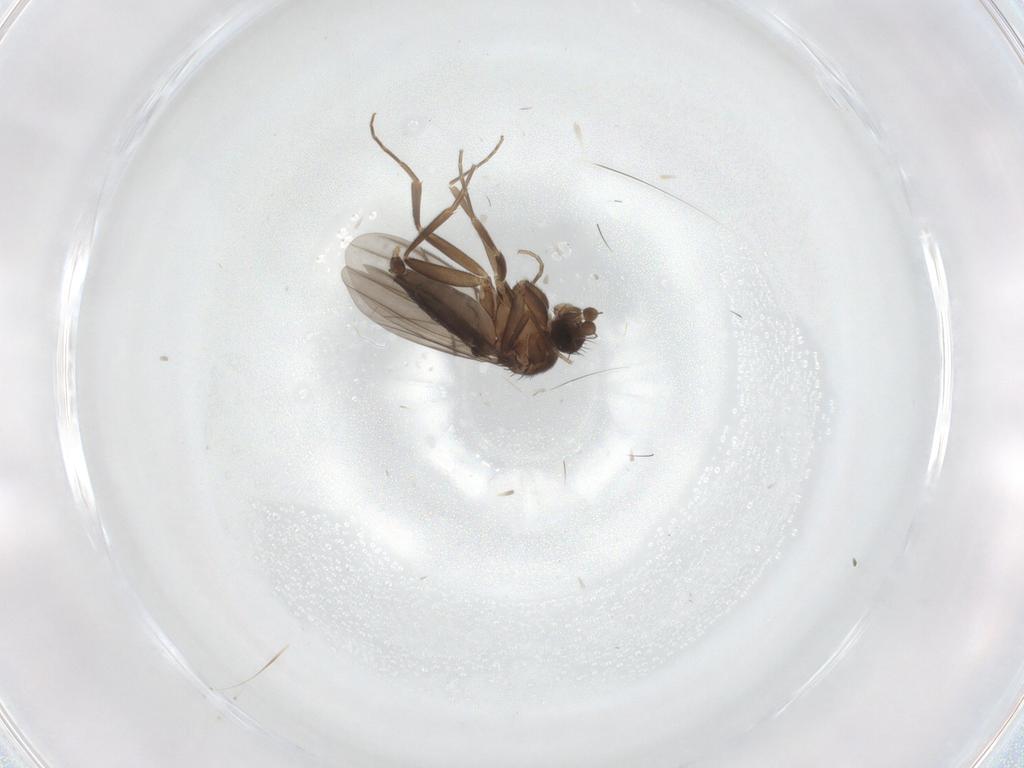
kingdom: Animalia
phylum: Arthropoda
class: Insecta
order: Diptera
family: Cecidomyiidae
